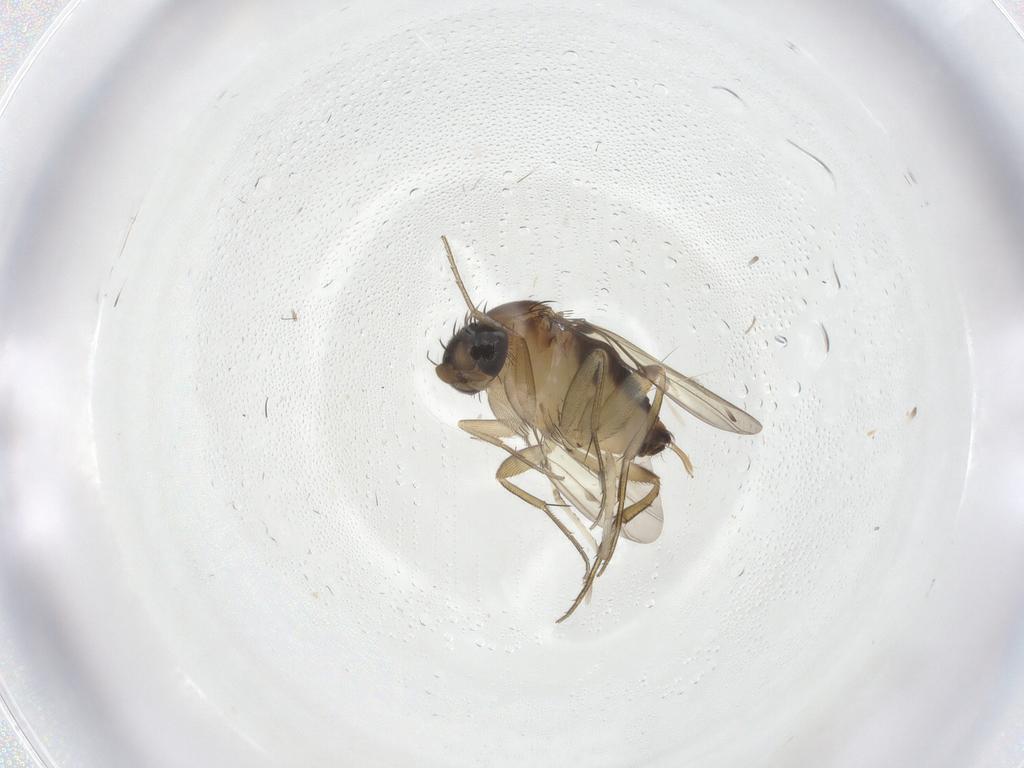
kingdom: Animalia
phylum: Arthropoda
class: Insecta
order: Diptera
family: Phoridae
